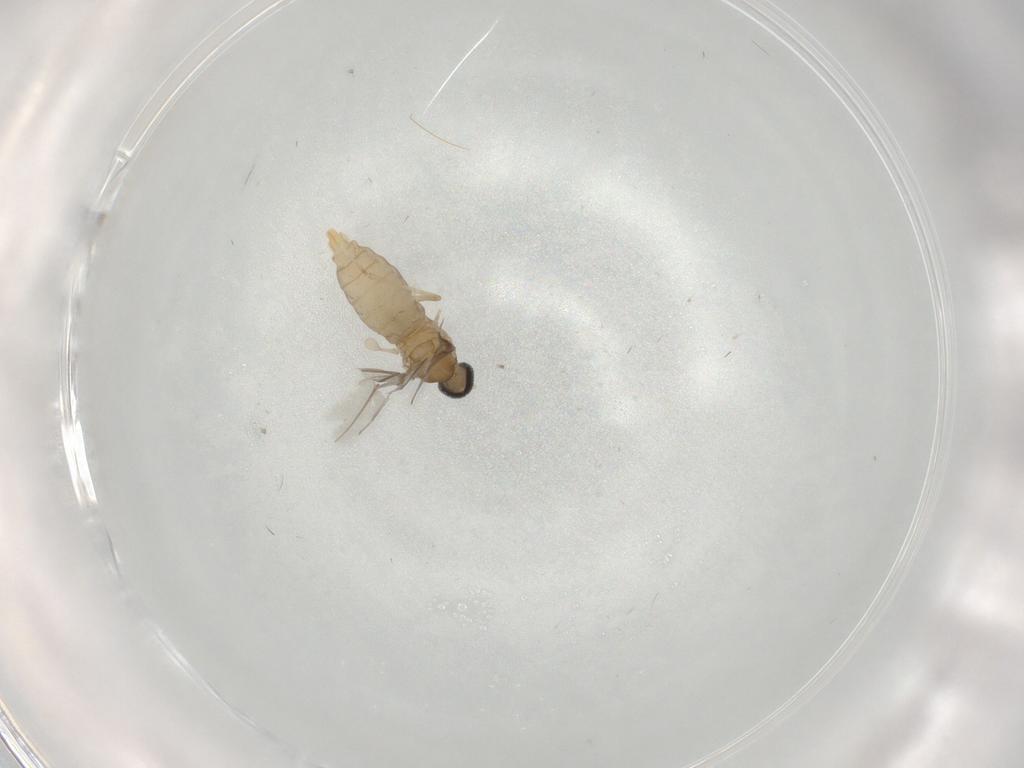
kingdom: Animalia
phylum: Arthropoda
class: Insecta
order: Diptera
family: Cecidomyiidae
